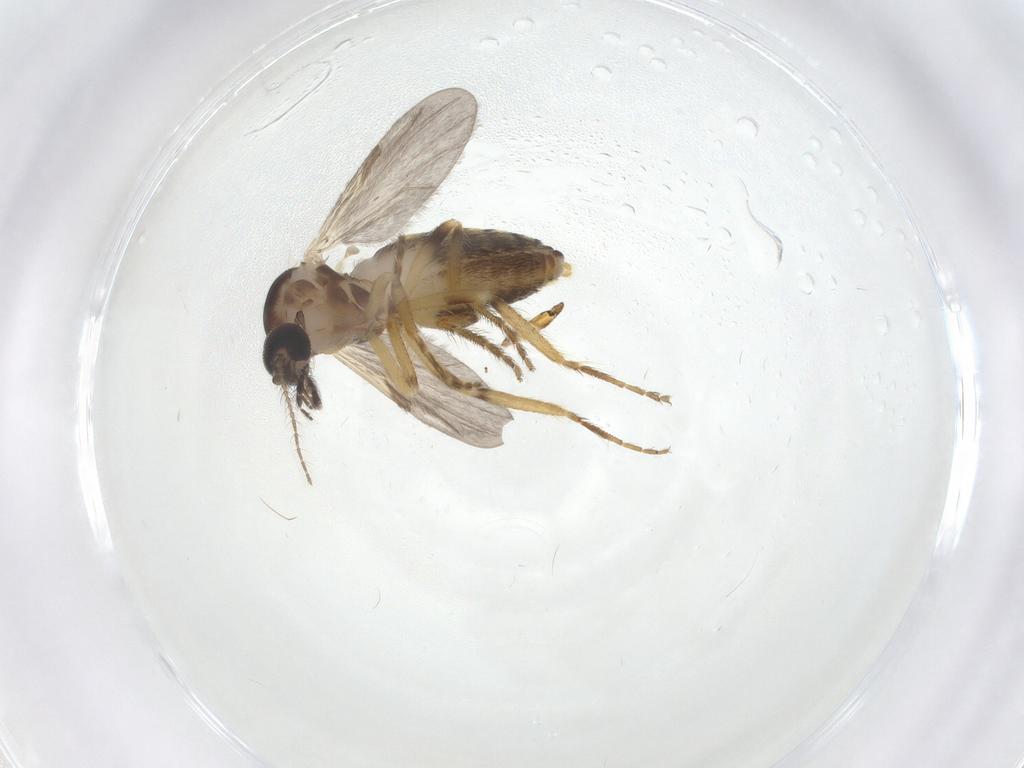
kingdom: Animalia
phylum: Arthropoda
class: Insecta
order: Diptera
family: Ceratopogonidae
